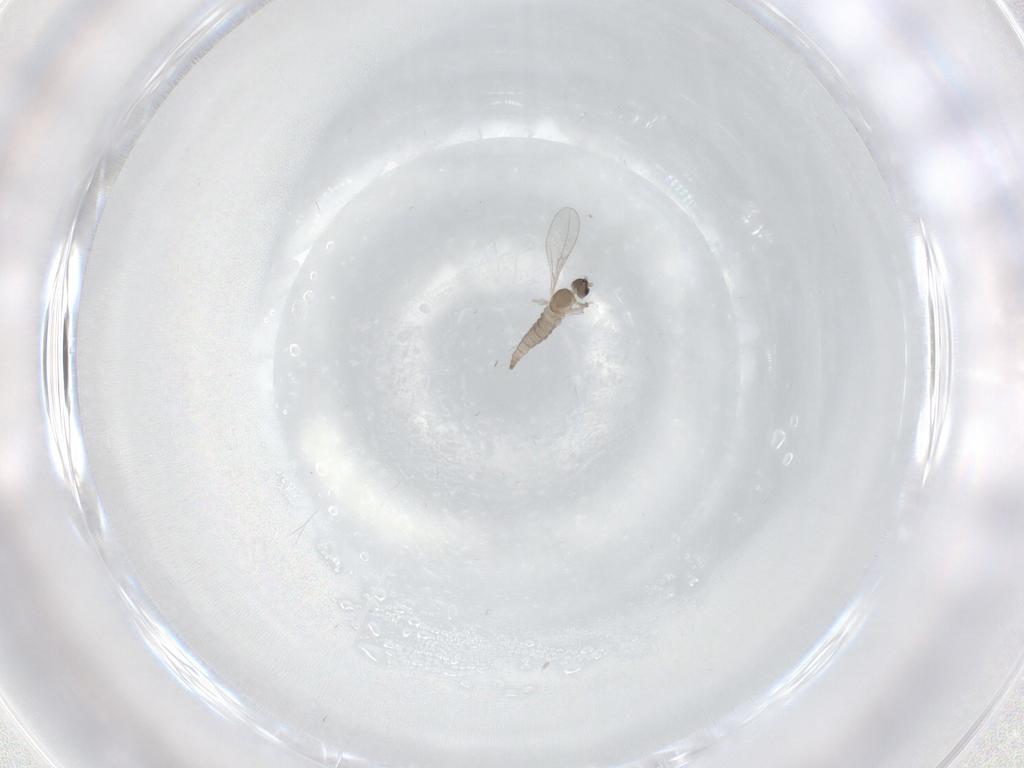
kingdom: Animalia
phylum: Arthropoda
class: Insecta
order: Diptera
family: Cecidomyiidae
